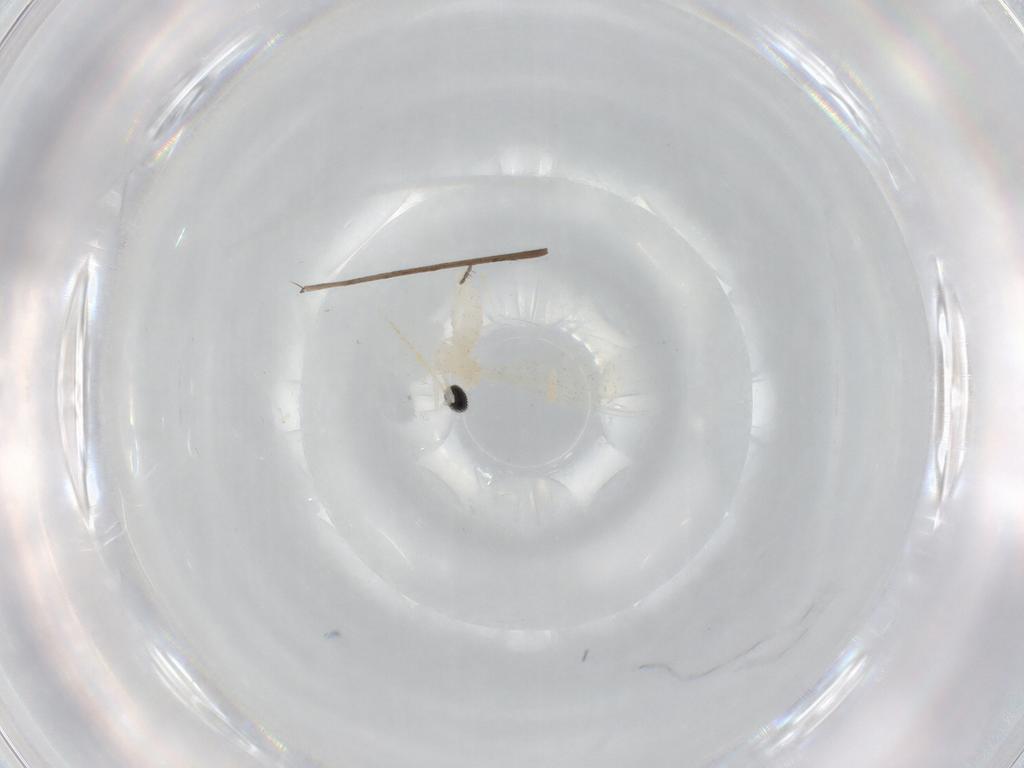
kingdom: Animalia
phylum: Arthropoda
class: Insecta
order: Diptera
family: Cecidomyiidae
